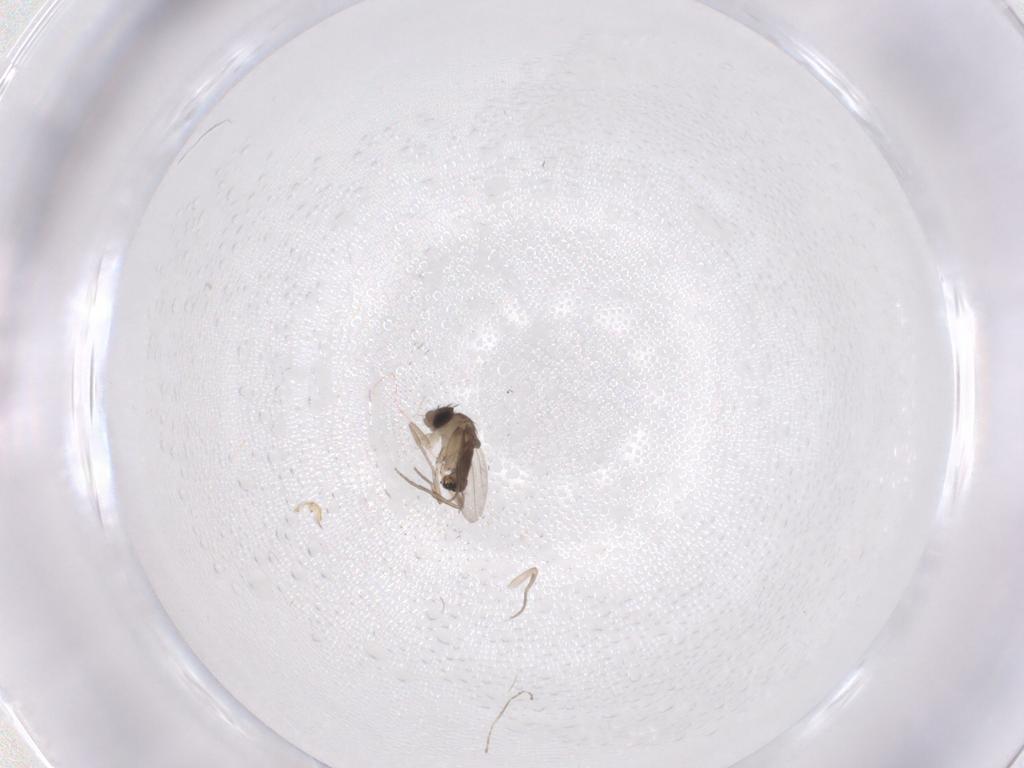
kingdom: Animalia
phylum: Arthropoda
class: Insecta
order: Diptera
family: Phoridae
